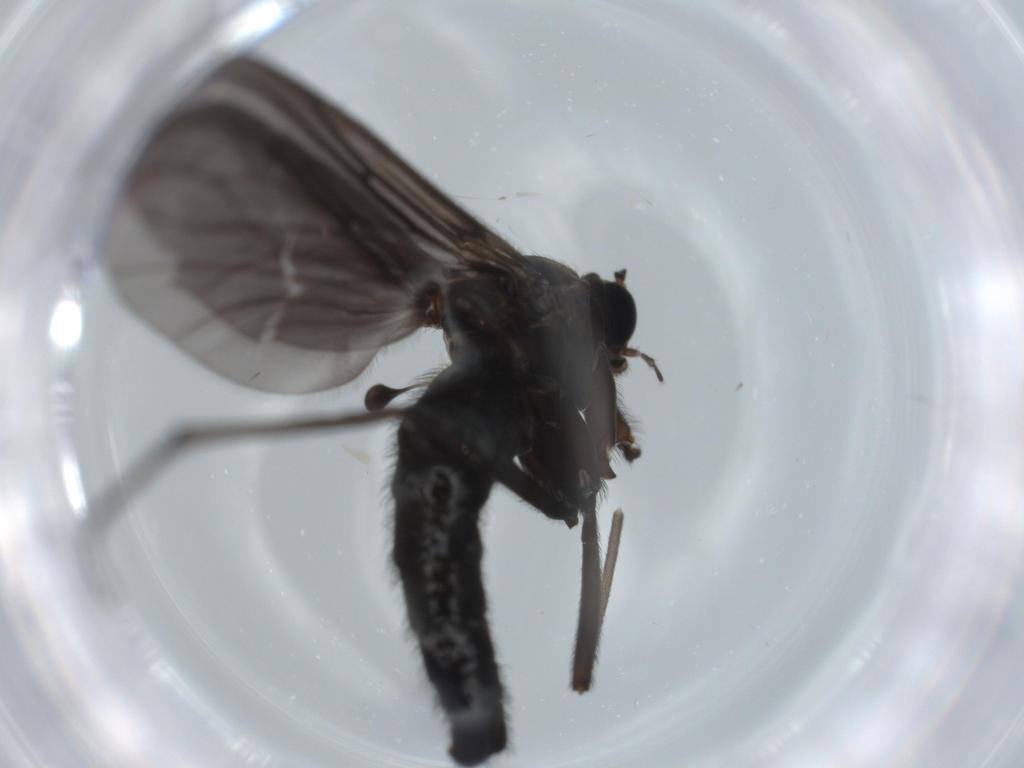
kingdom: Animalia
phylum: Arthropoda
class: Insecta
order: Diptera
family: Sciaridae
